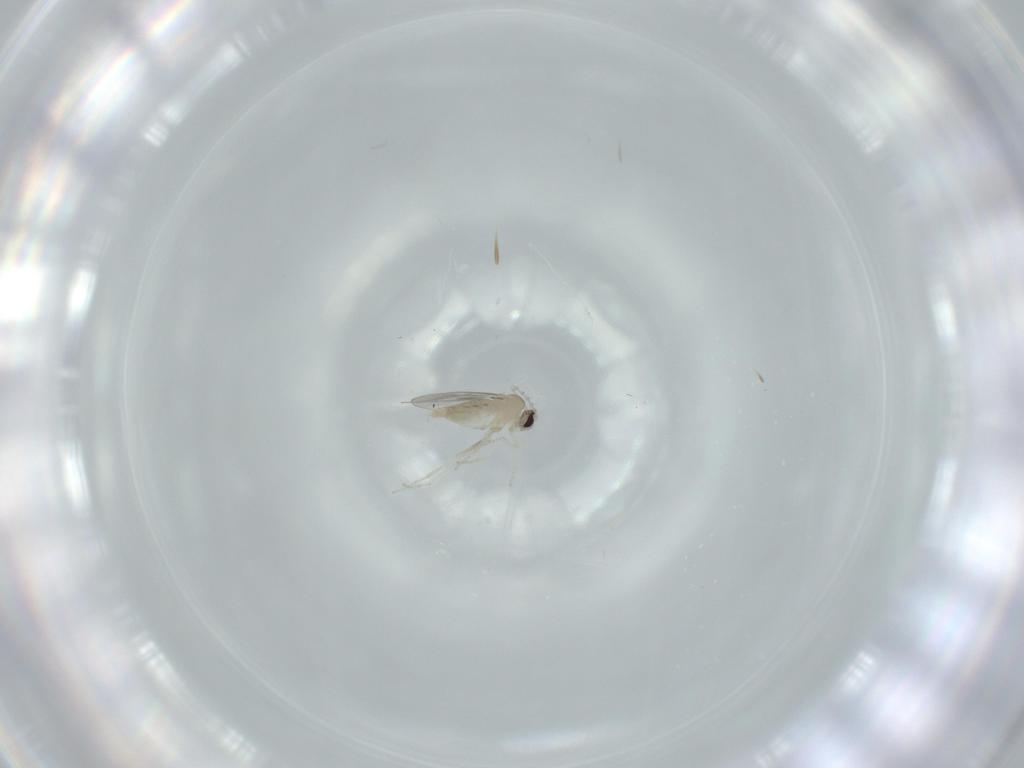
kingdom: Animalia
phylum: Arthropoda
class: Insecta
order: Diptera
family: Cecidomyiidae
